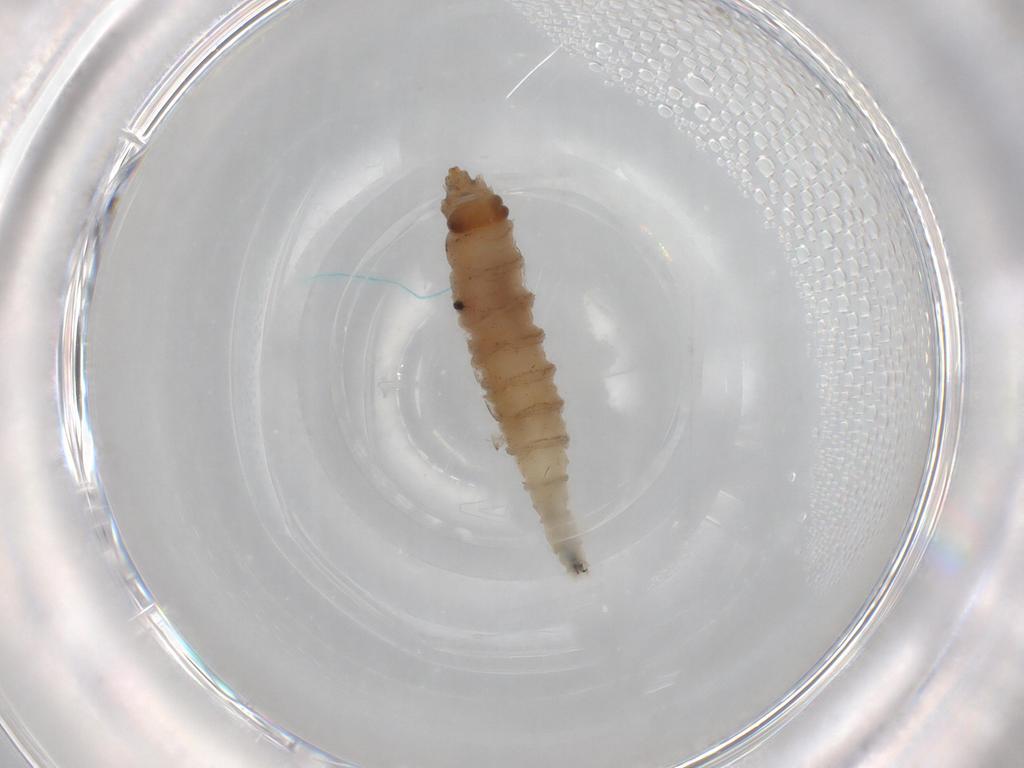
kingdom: Animalia
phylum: Arthropoda
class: Insecta
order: Diptera
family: Drosophilidae
